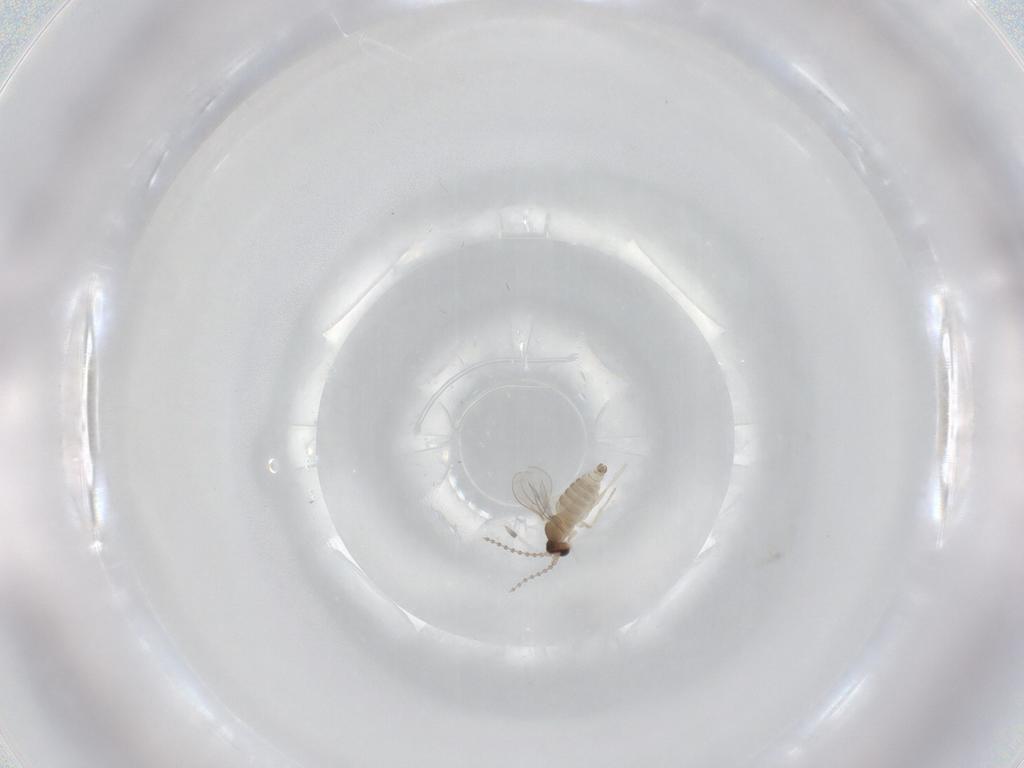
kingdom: Animalia
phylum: Arthropoda
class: Insecta
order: Diptera
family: Cecidomyiidae
